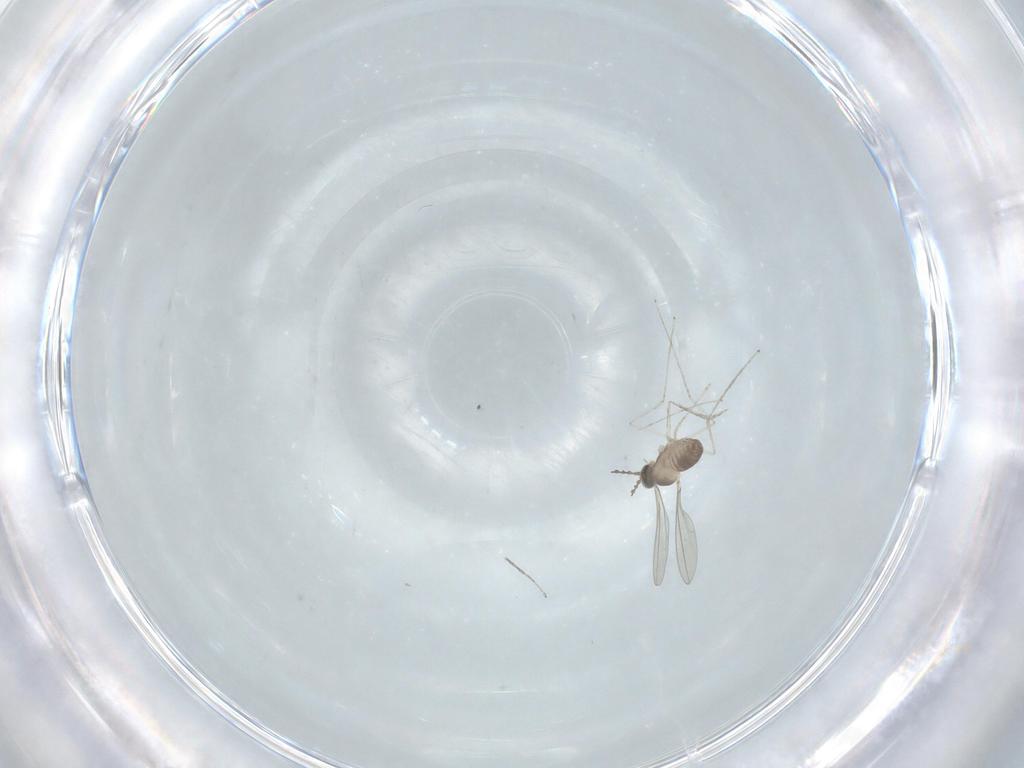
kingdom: Animalia
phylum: Arthropoda
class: Insecta
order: Diptera
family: Cecidomyiidae
